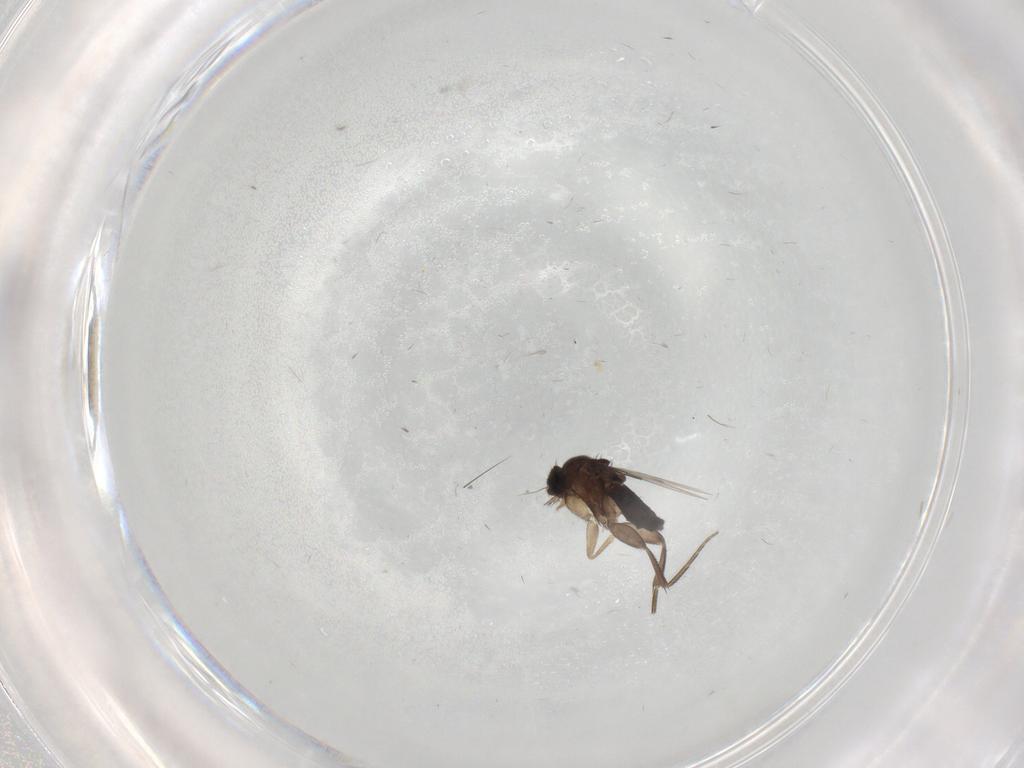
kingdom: Animalia
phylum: Arthropoda
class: Insecta
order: Diptera
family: Phoridae
